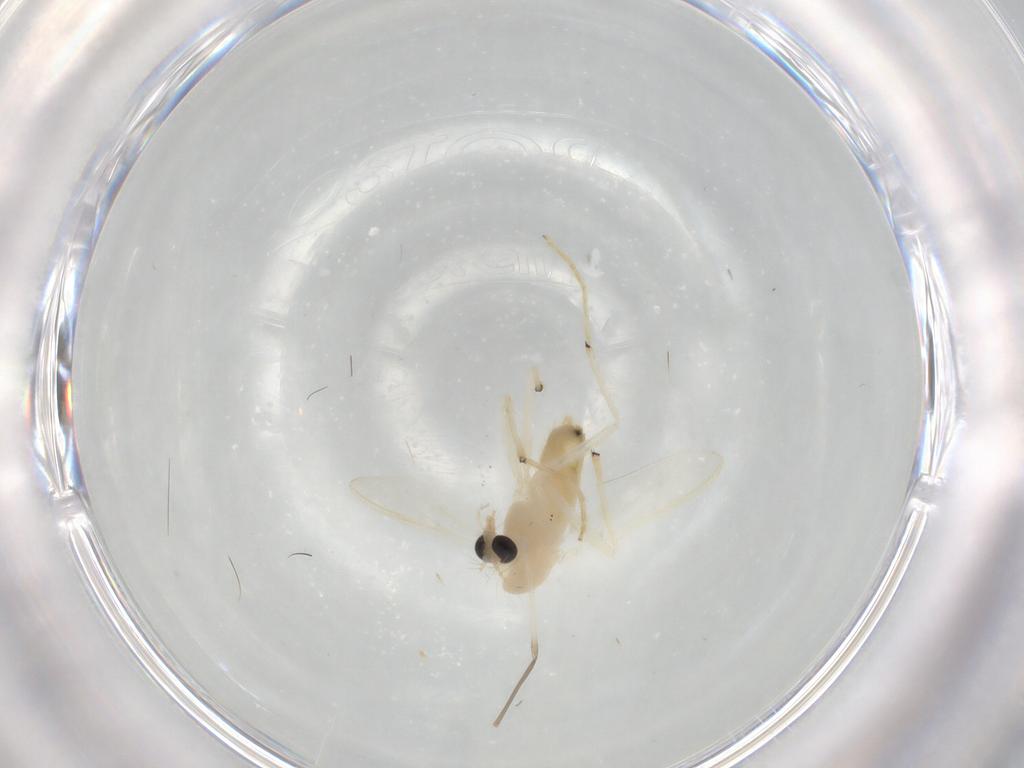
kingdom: Animalia
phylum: Arthropoda
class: Insecta
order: Diptera
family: Chironomidae
